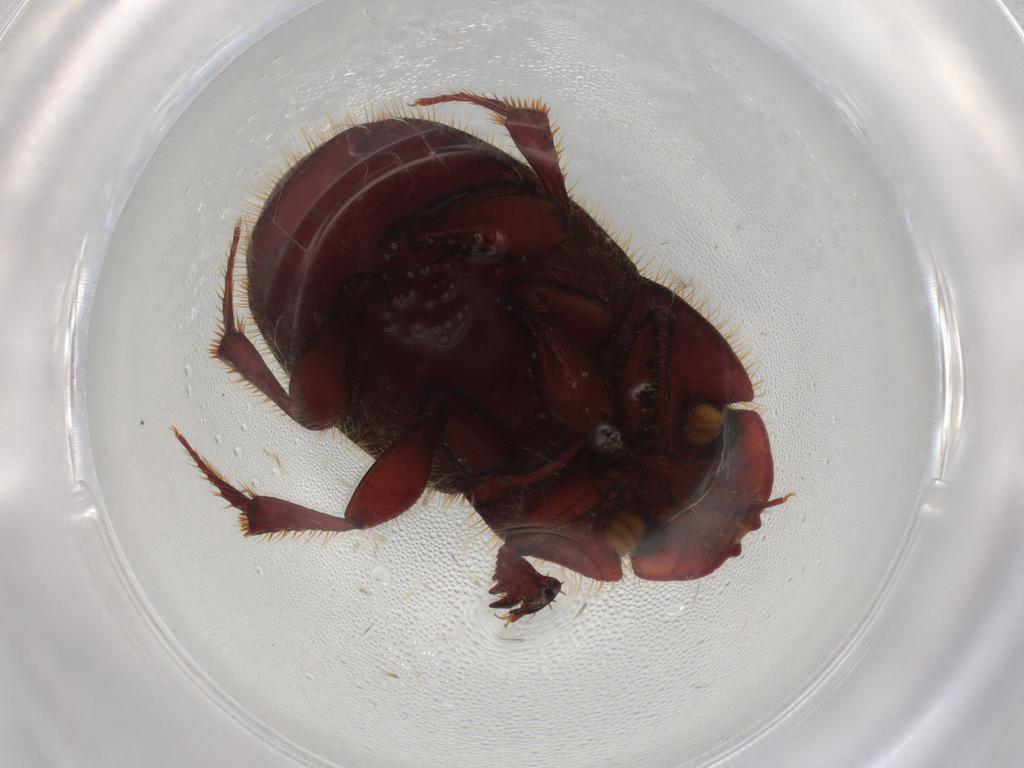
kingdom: Animalia
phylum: Arthropoda
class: Insecta
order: Coleoptera
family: Scarabaeidae
